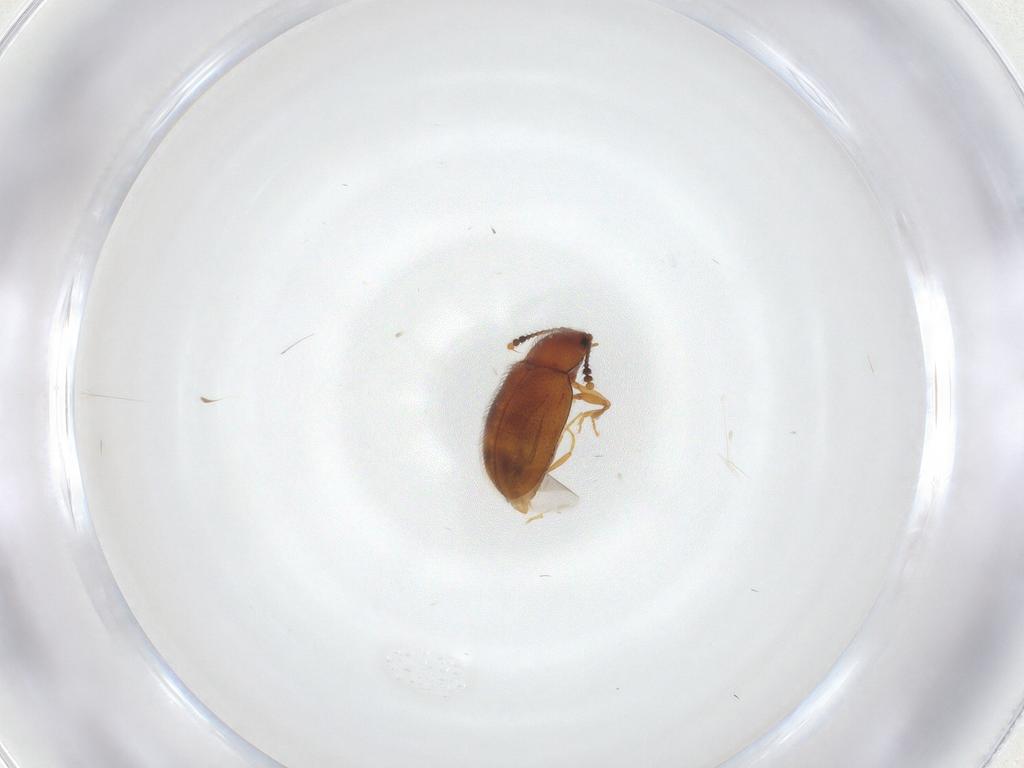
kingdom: Animalia
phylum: Arthropoda
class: Insecta
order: Coleoptera
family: Erotylidae
